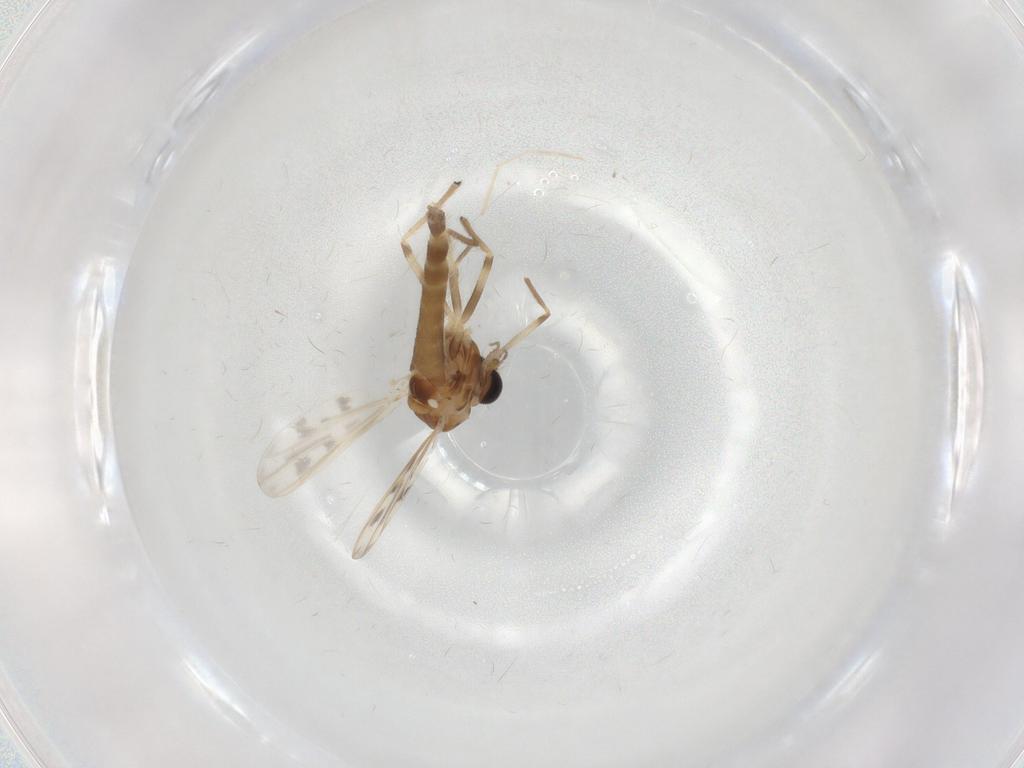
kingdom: Animalia
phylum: Arthropoda
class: Insecta
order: Diptera
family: Chironomidae
